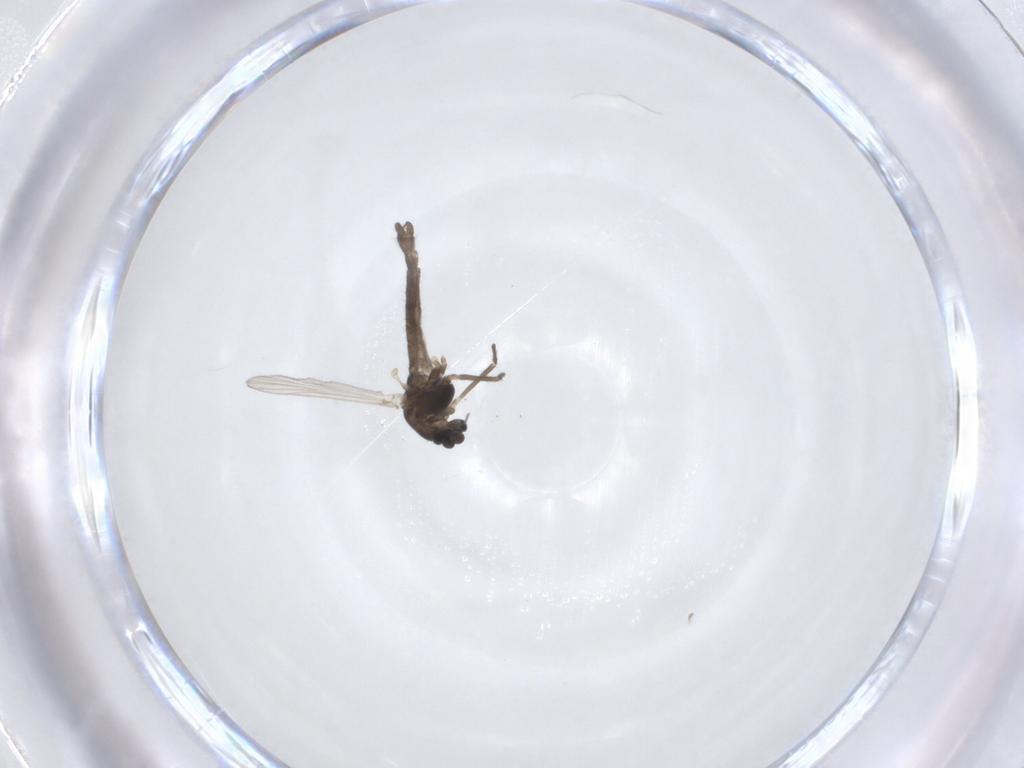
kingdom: Animalia
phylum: Arthropoda
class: Insecta
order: Diptera
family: Chironomidae
